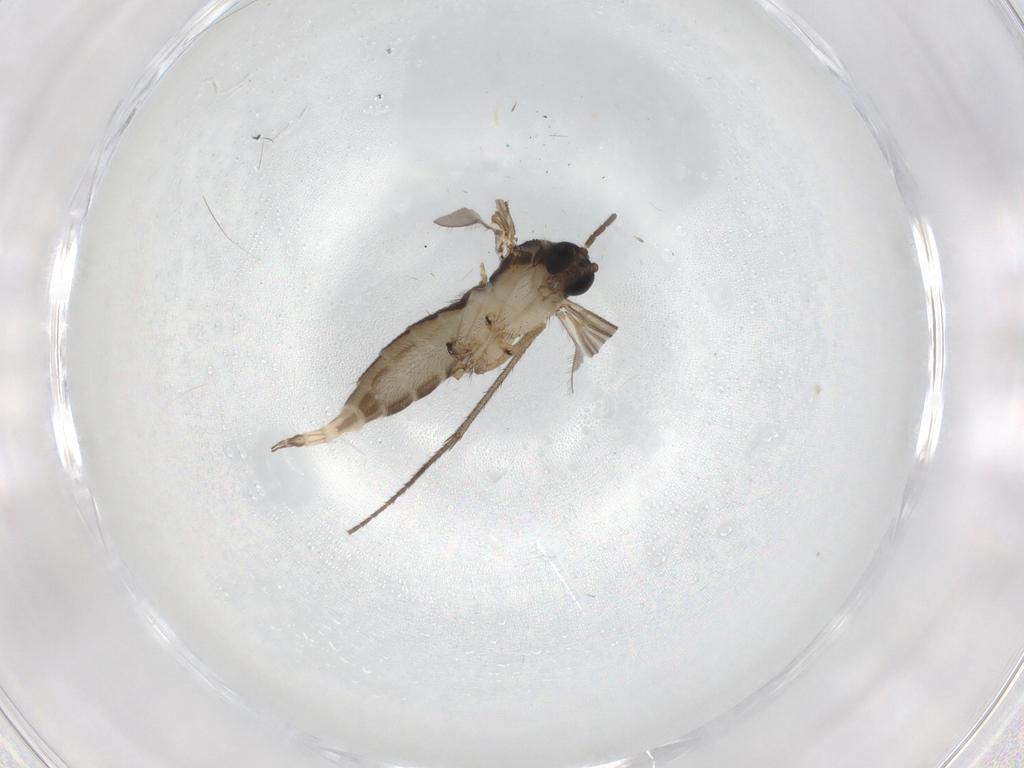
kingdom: Animalia
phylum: Arthropoda
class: Insecta
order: Diptera
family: Sciaridae
